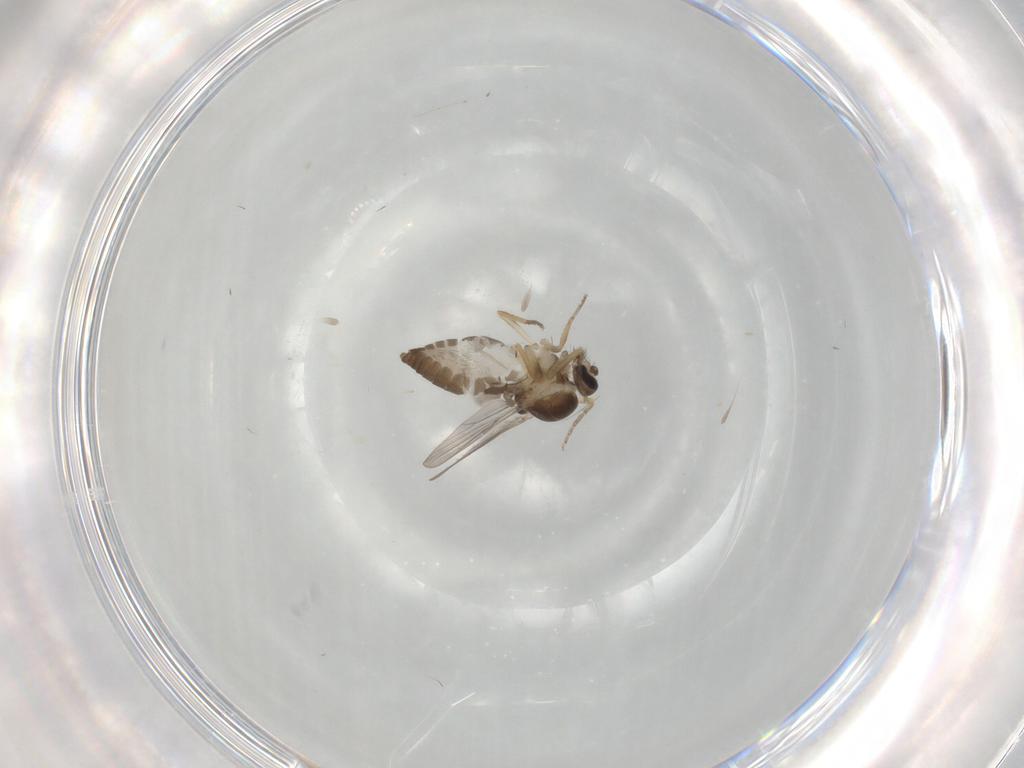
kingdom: Animalia
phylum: Arthropoda
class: Insecta
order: Diptera
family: Ceratopogonidae
